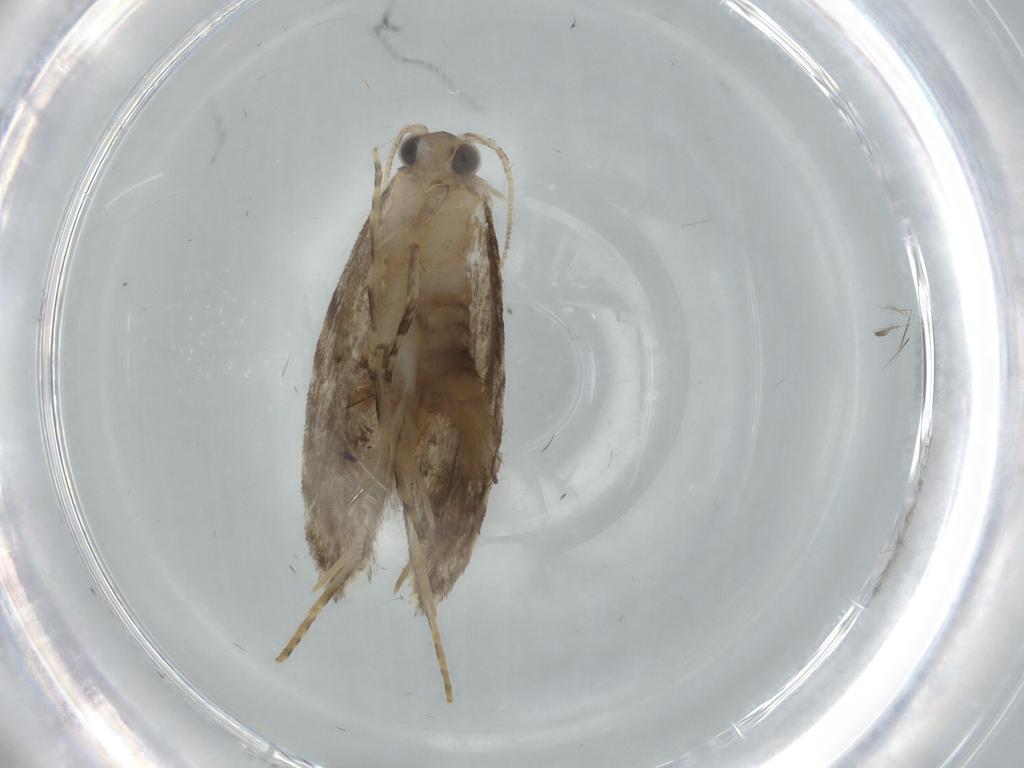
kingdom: Animalia
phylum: Arthropoda
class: Insecta
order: Lepidoptera
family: Tineidae
